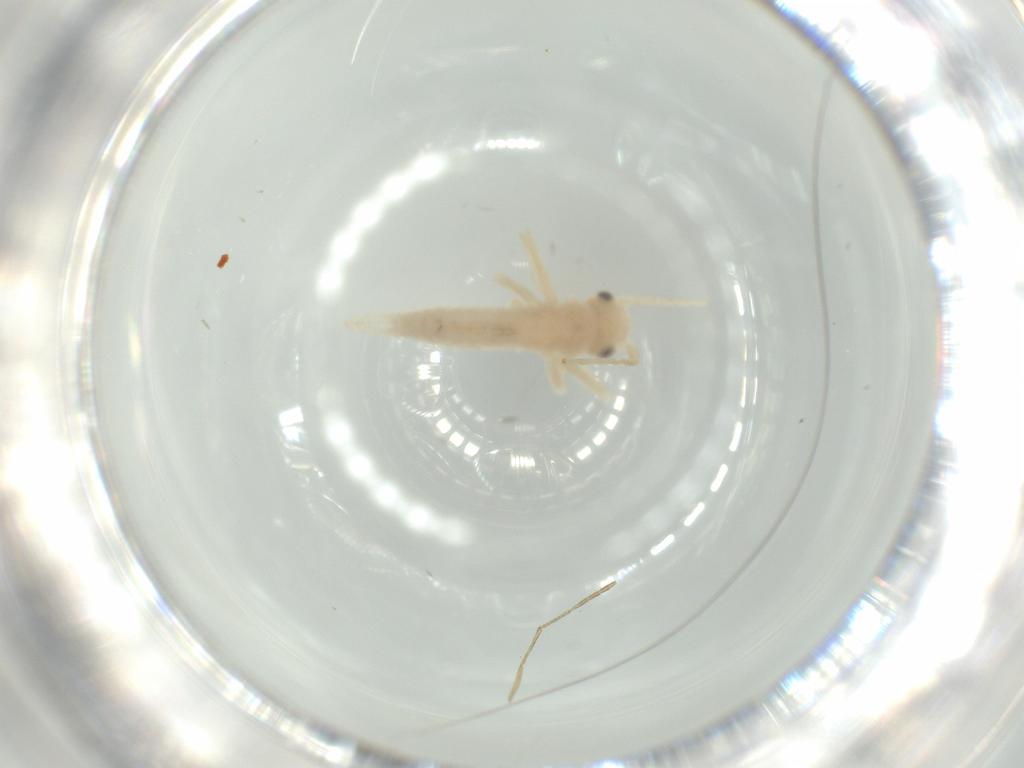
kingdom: Animalia
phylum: Arthropoda
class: Insecta
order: Orthoptera
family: Trigonidiidae
